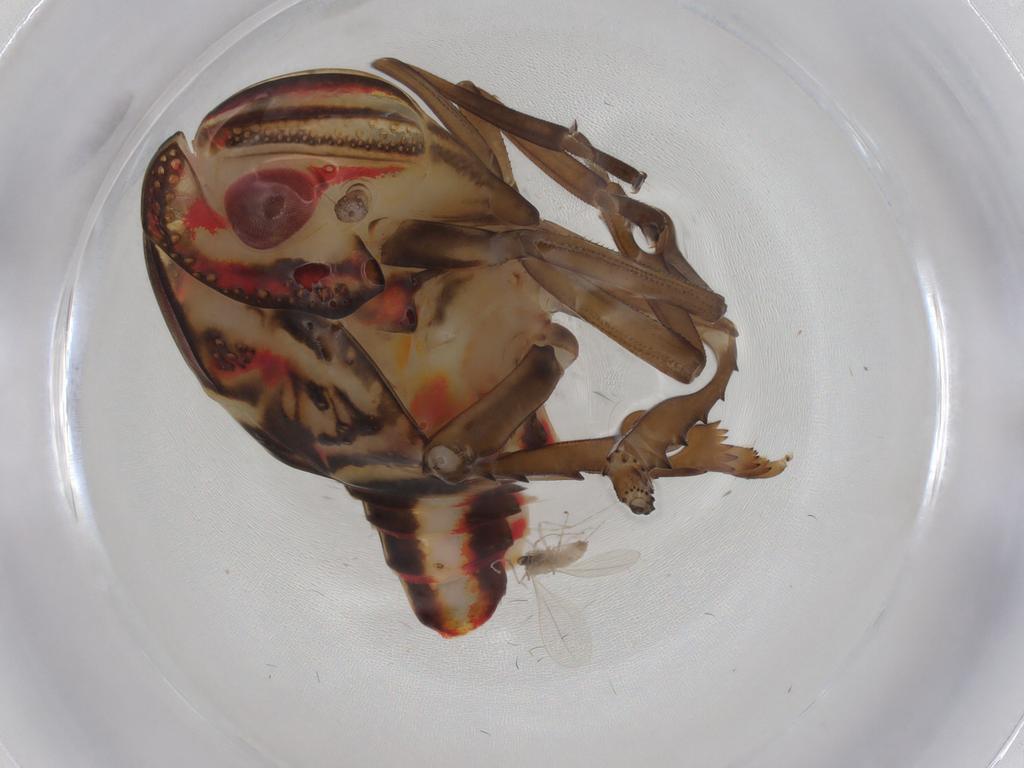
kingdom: Animalia
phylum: Arthropoda
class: Insecta
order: Hemiptera
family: Nogodinidae
